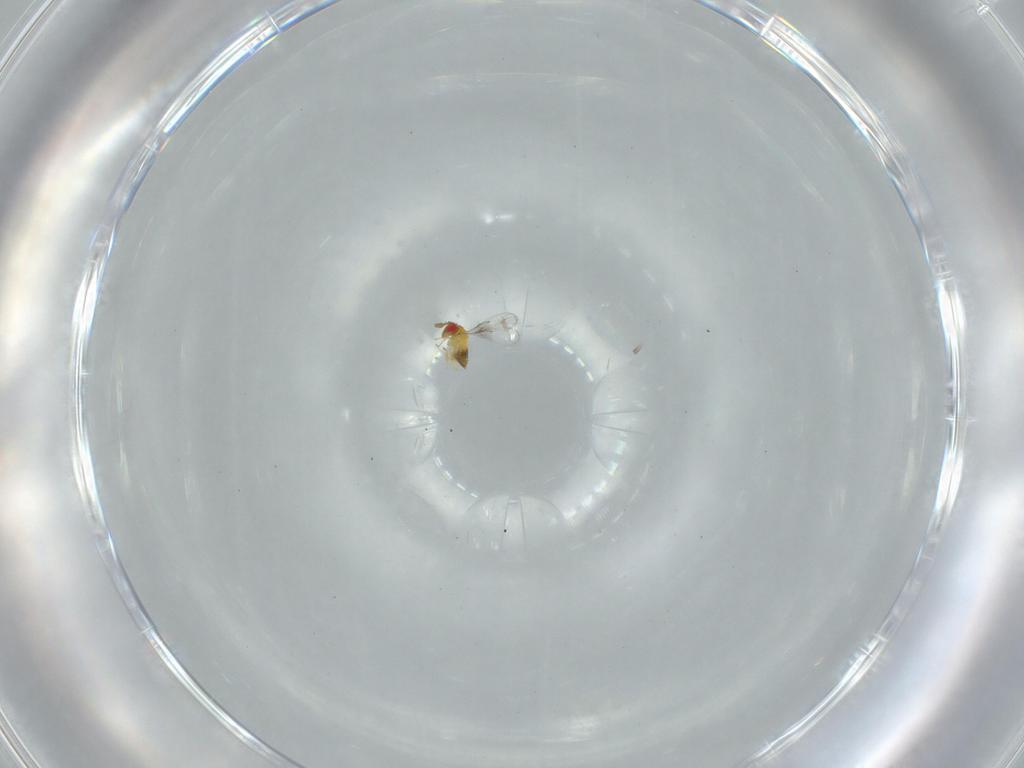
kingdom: Animalia
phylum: Arthropoda
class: Insecta
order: Hymenoptera
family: Trichogrammatidae
